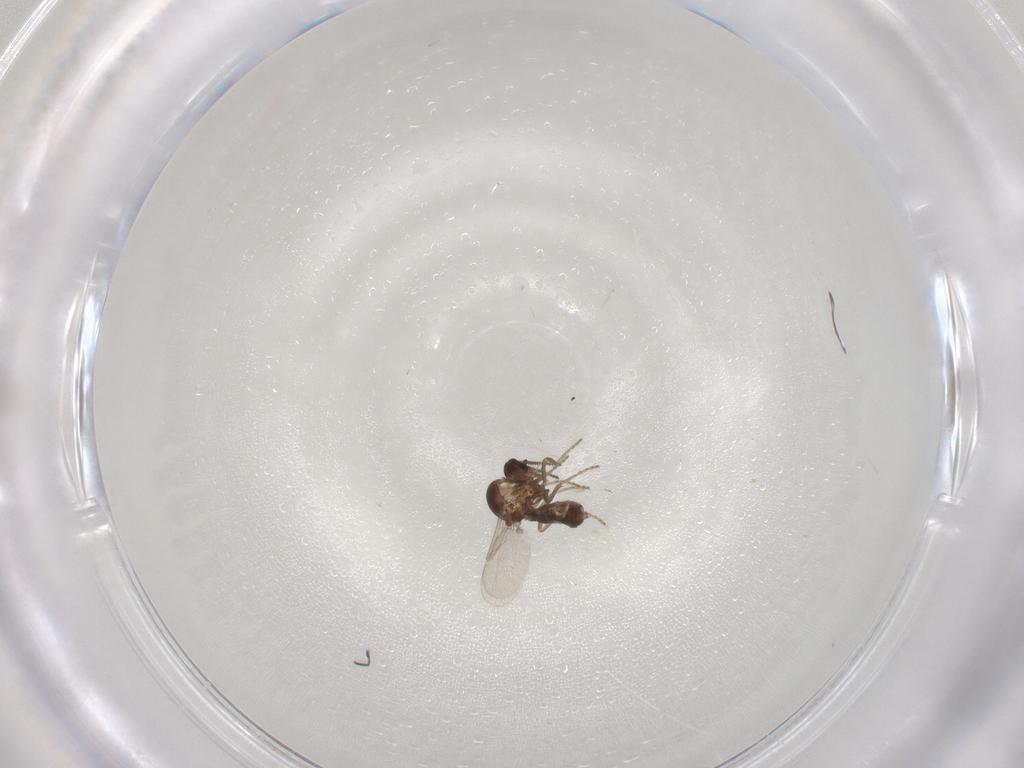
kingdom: Animalia
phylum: Arthropoda
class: Insecta
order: Diptera
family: Ceratopogonidae
